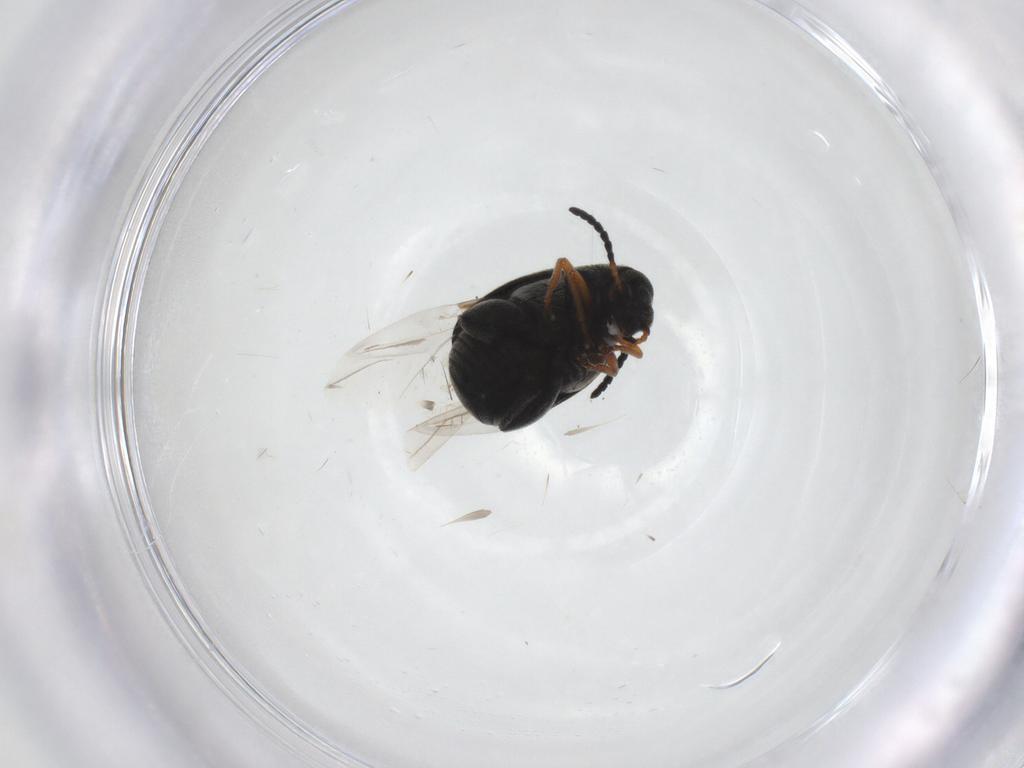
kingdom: Animalia
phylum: Arthropoda
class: Insecta
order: Coleoptera
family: Chrysomelidae
